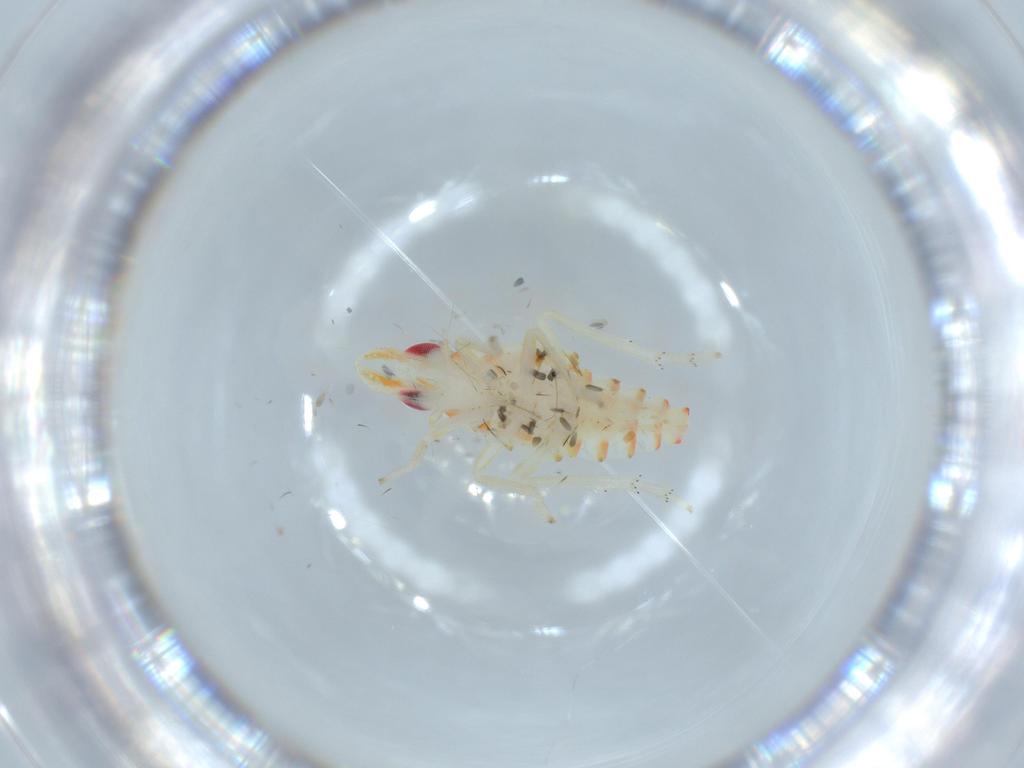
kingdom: Animalia
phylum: Arthropoda
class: Insecta
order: Hemiptera
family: Tropiduchidae
